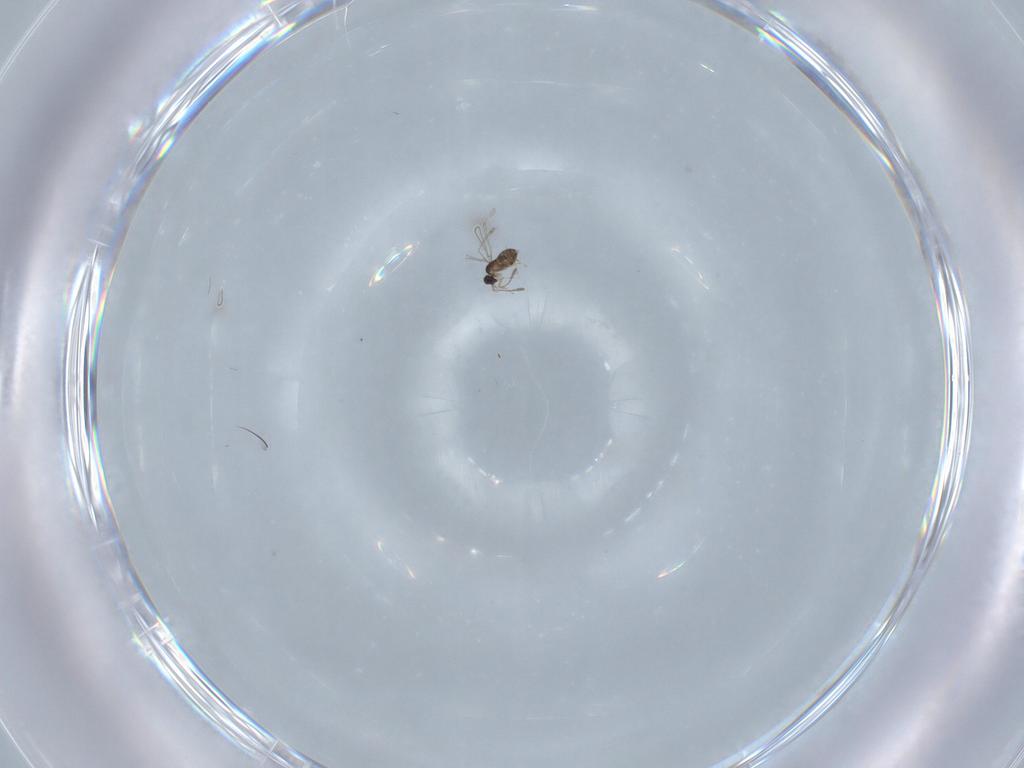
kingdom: Animalia
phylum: Arthropoda
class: Insecta
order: Hymenoptera
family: Mymaridae
